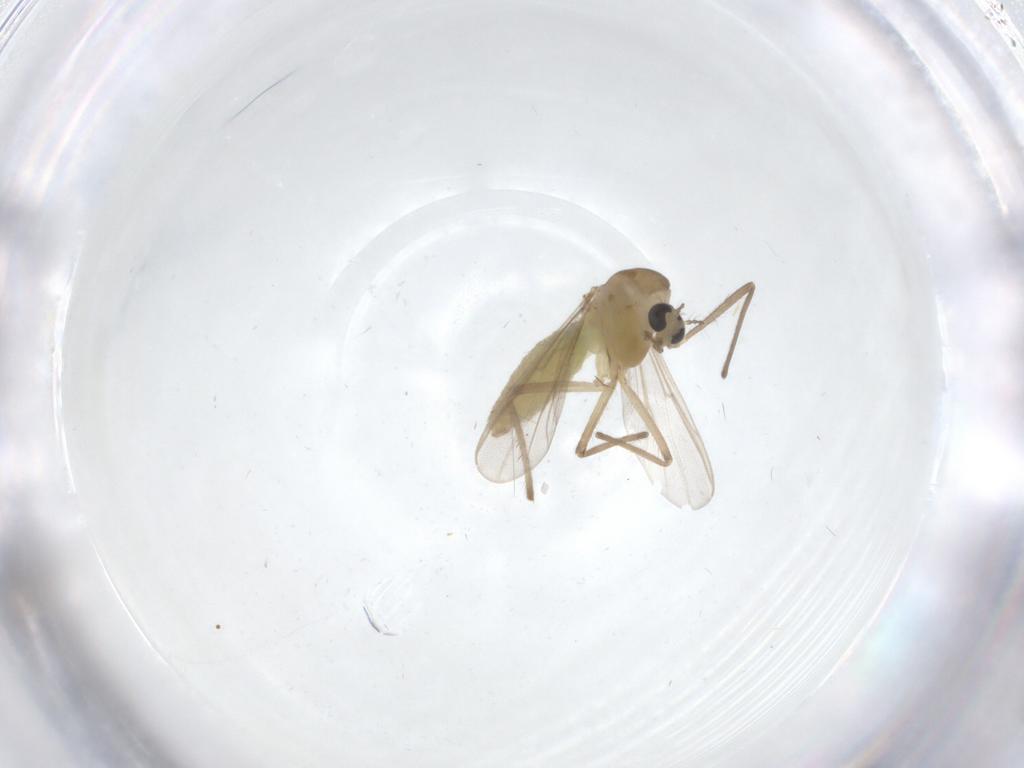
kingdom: Animalia
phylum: Arthropoda
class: Insecta
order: Diptera
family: Chironomidae
